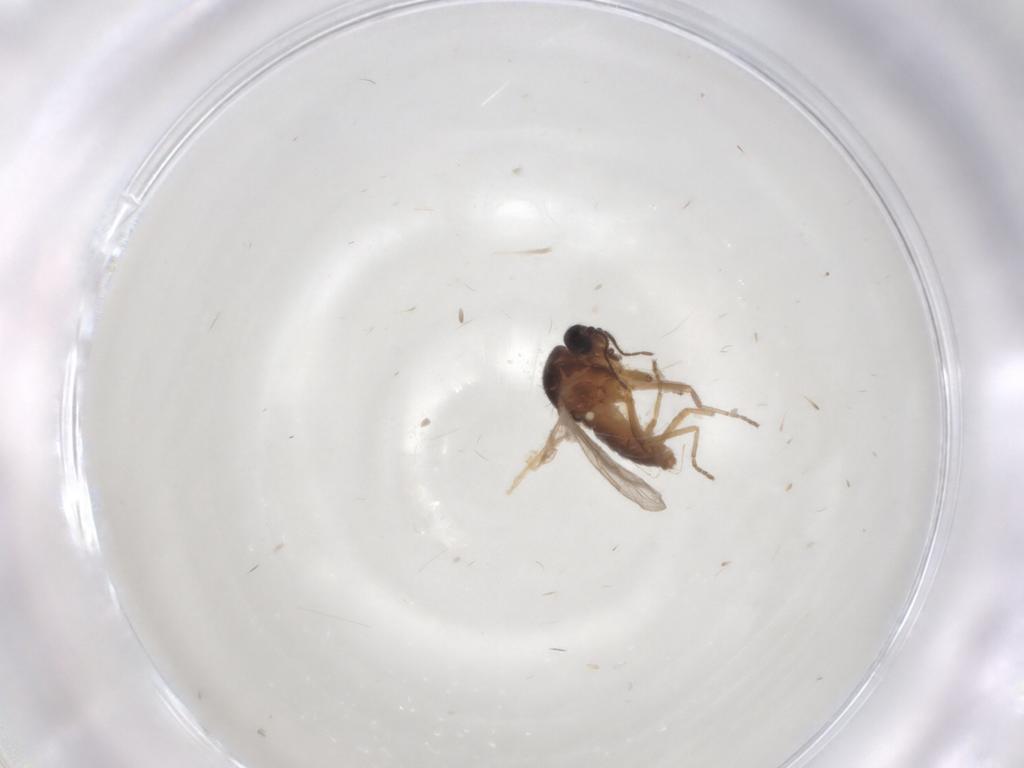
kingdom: Animalia
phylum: Arthropoda
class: Insecta
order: Diptera
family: Ceratopogonidae
